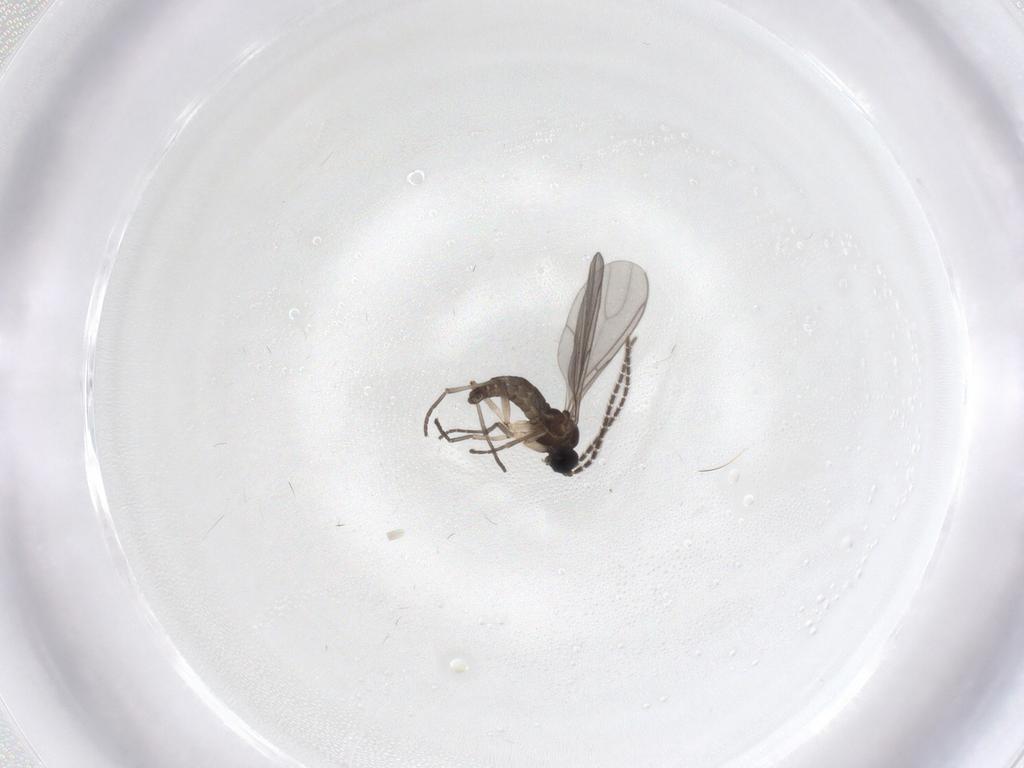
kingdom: Animalia
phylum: Arthropoda
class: Insecta
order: Diptera
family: Sciaridae
